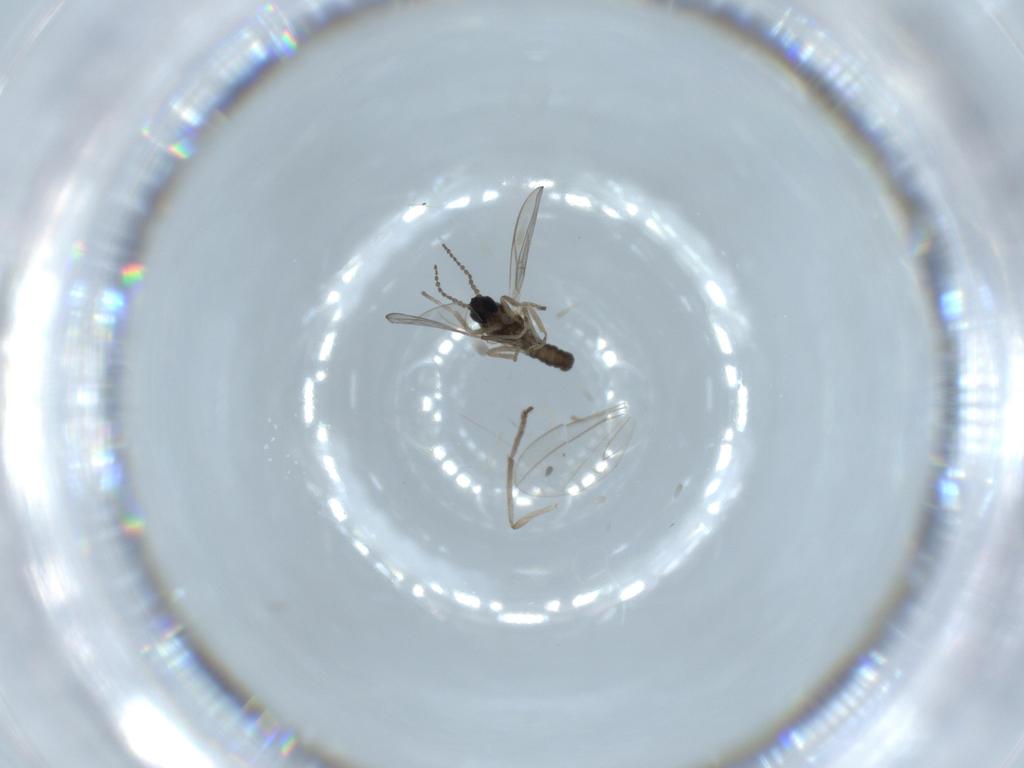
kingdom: Animalia
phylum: Arthropoda
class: Insecta
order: Diptera
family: Cecidomyiidae
